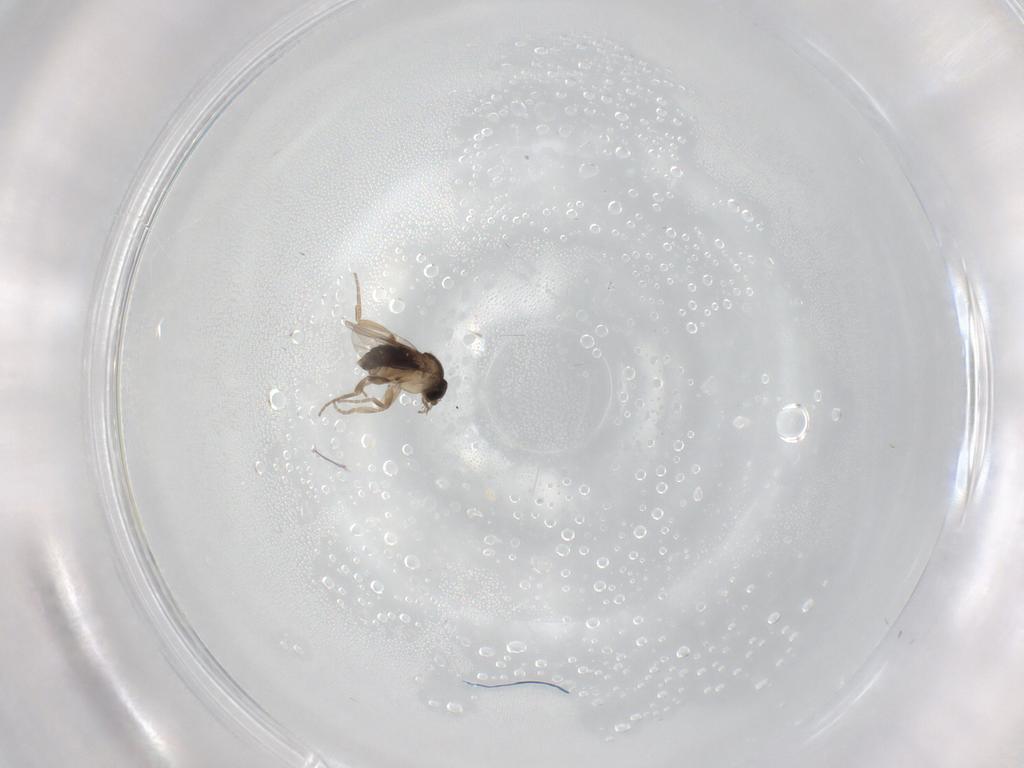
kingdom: Animalia
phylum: Arthropoda
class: Insecta
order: Diptera
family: Phoridae
